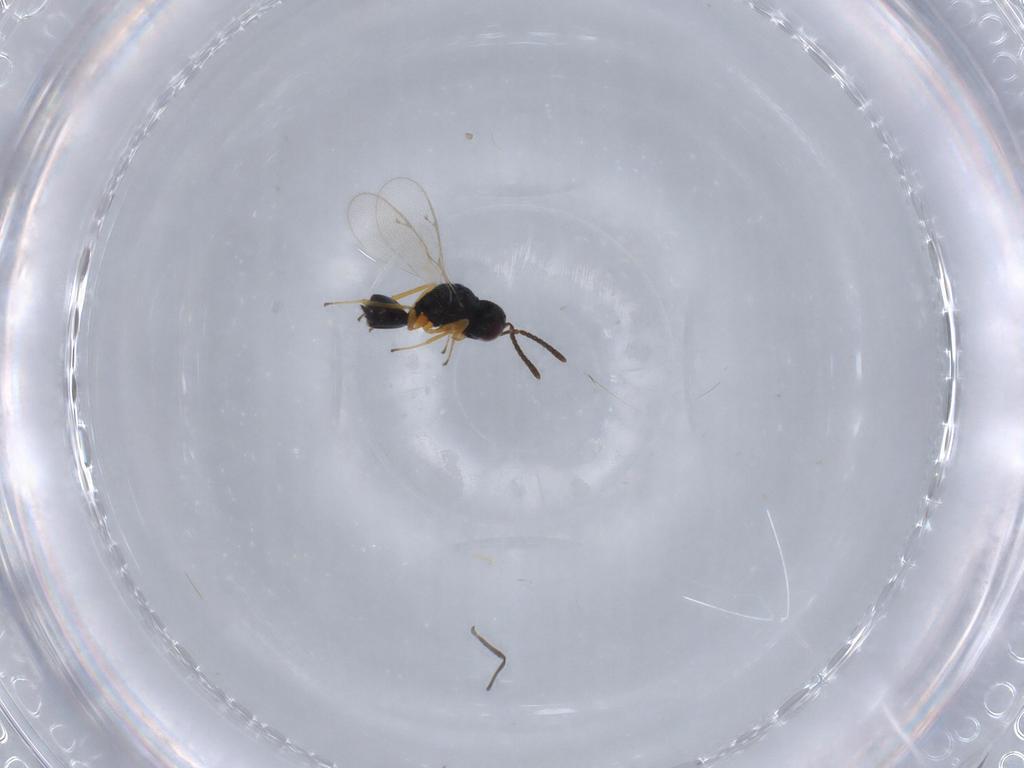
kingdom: Animalia
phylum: Arthropoda
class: Insecta
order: Hymenoptera
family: Pteromalidae
